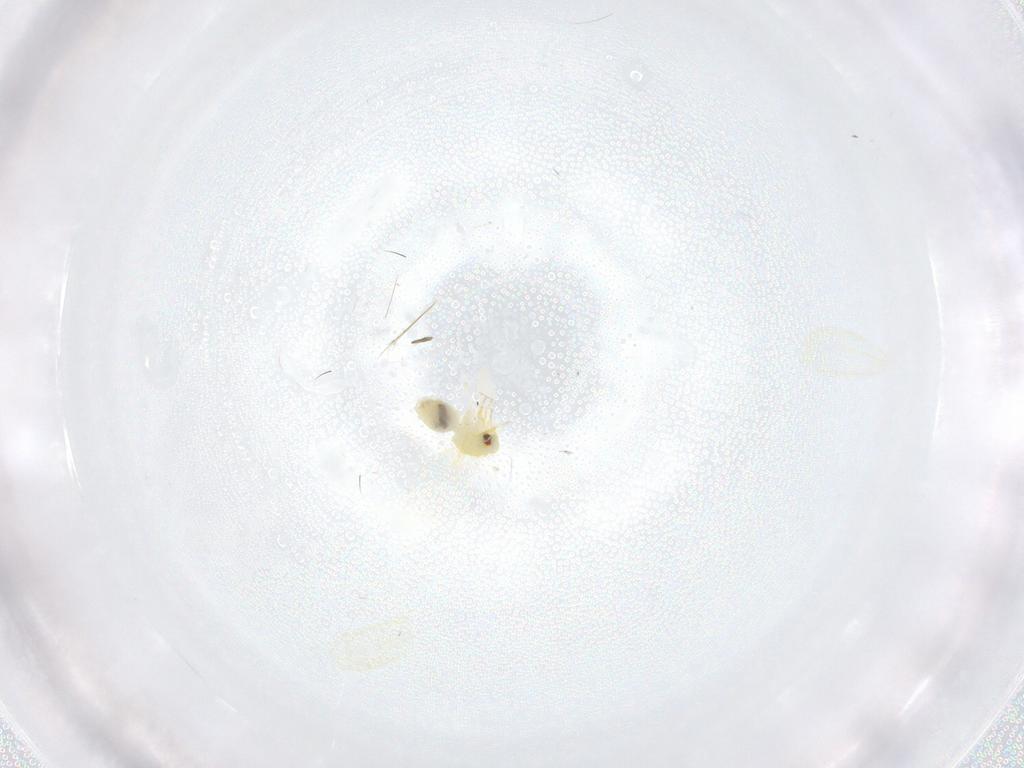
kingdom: Animalia
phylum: Arthropoda
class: Insecta
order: Hemiptera
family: Aleyrodidae
